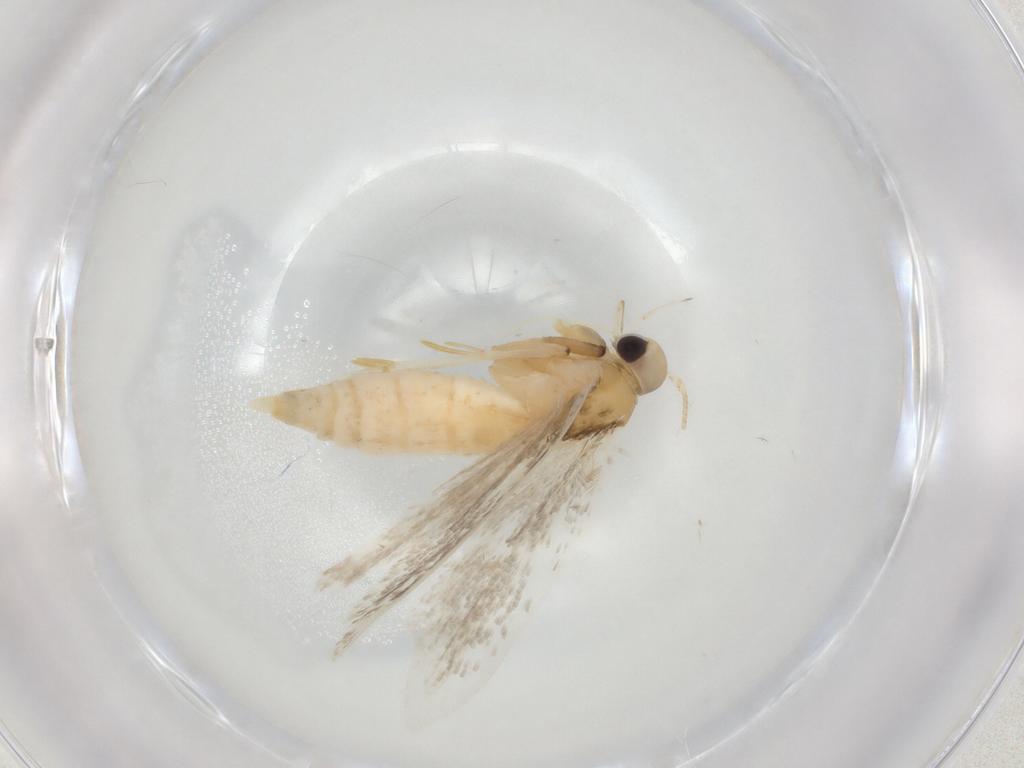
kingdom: Animalia
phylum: Arthropoda
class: Insecta
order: Lepidoptera
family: Autostichidae
